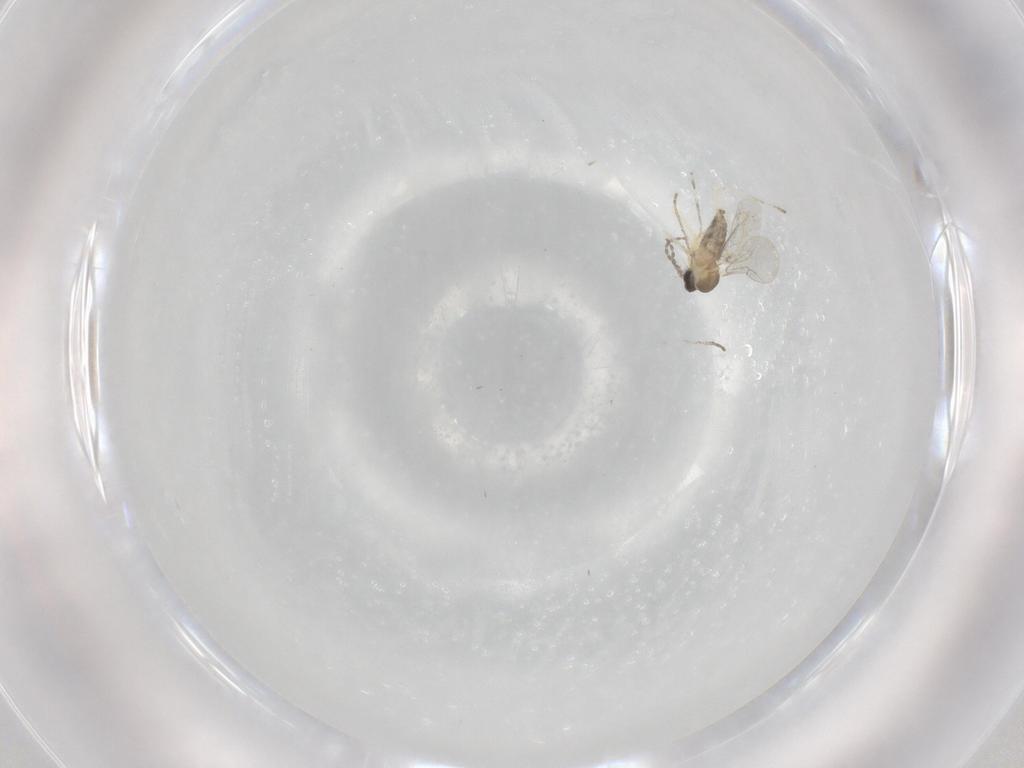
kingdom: Animalia
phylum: Arthropoda
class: Insecta
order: Diptera
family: Cecidomyiidae
